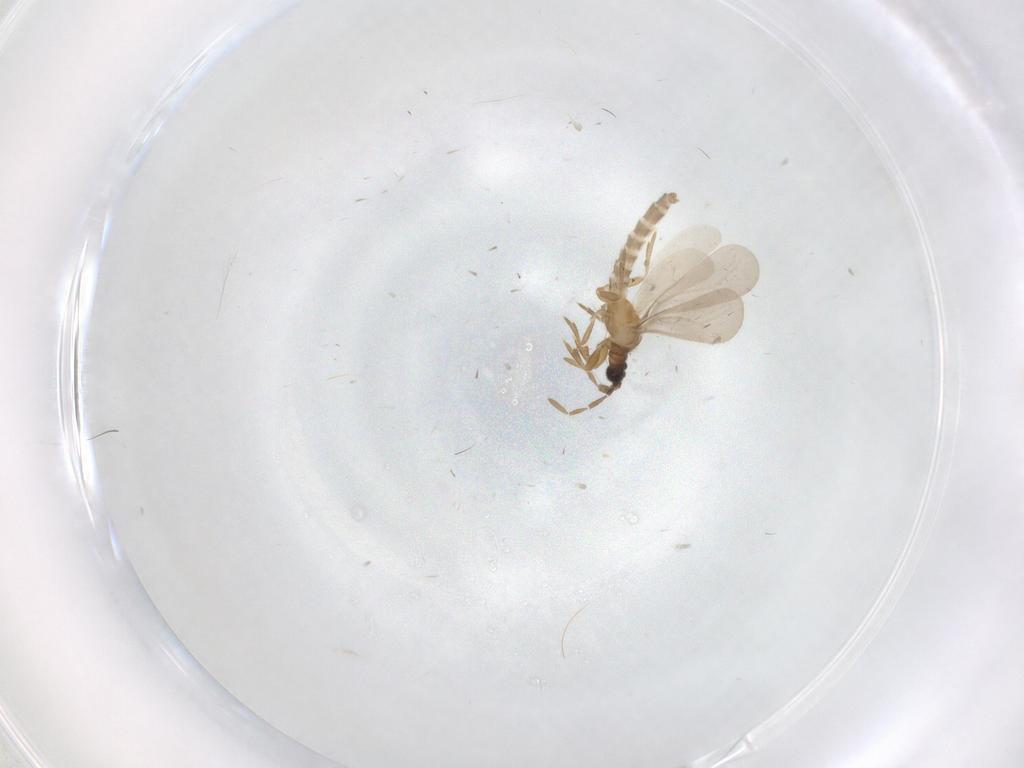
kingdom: Animalia
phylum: Arthropoda
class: Insecta
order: Hemiptera
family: Enicocephalidae
